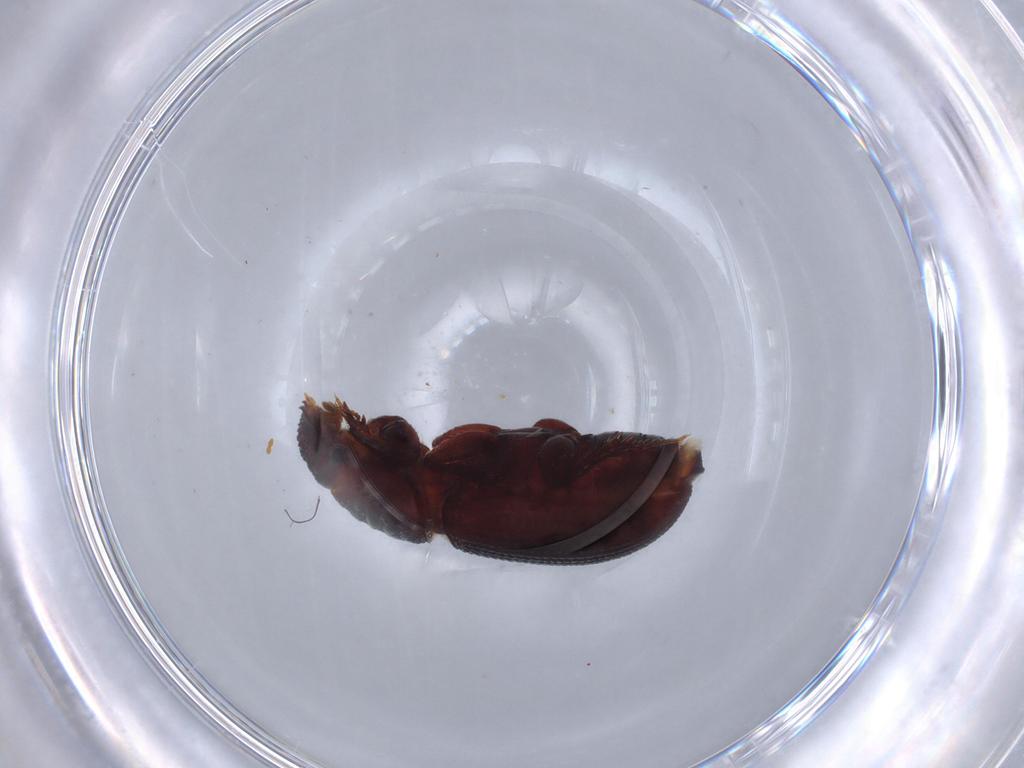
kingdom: Animalia
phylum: Arthropoda
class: Insecta
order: Coleoptera
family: Scarabaeidae
